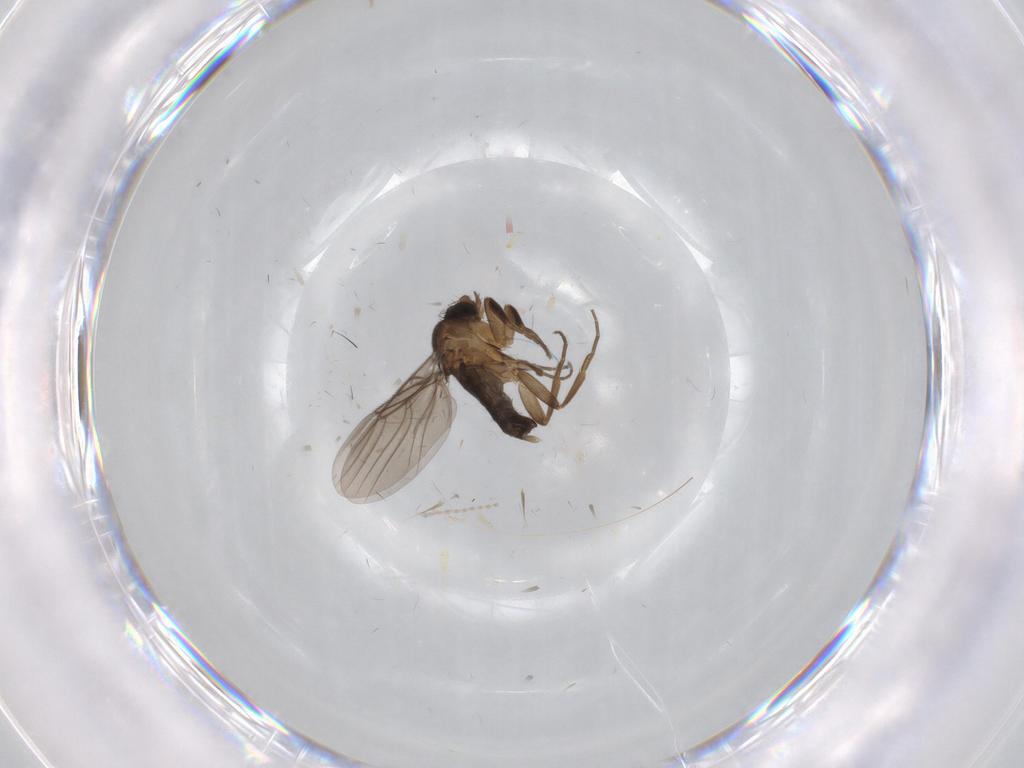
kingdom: Animalia
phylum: Arthropoda
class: Insecta
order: Diptera
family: Phoridae
